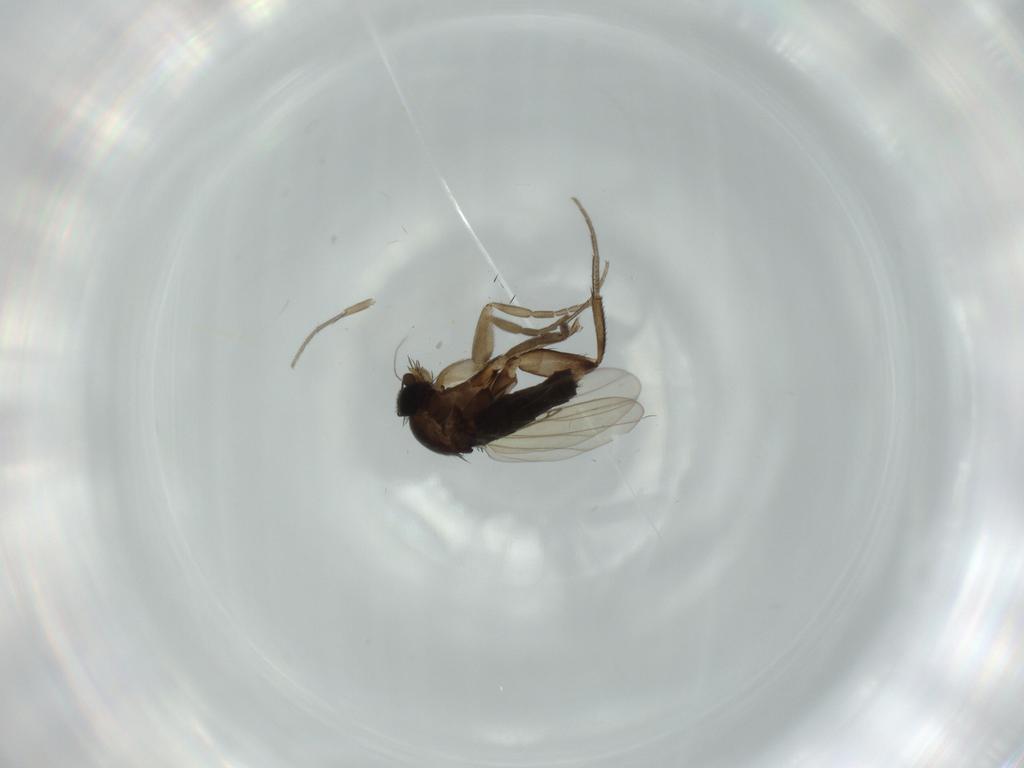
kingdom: Animalia
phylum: Arthropoda
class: Insecta
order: Diptera
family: Phoridae
